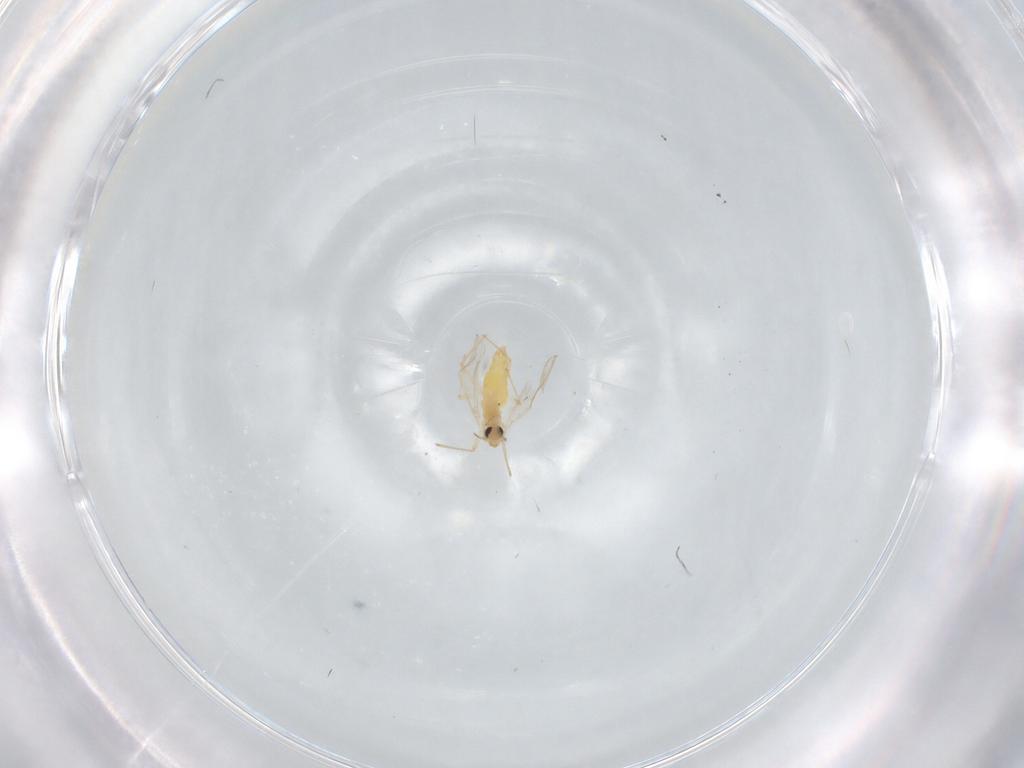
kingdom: Animalia
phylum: Arthropoda
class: Insecta
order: Diptera
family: Chironomidae
